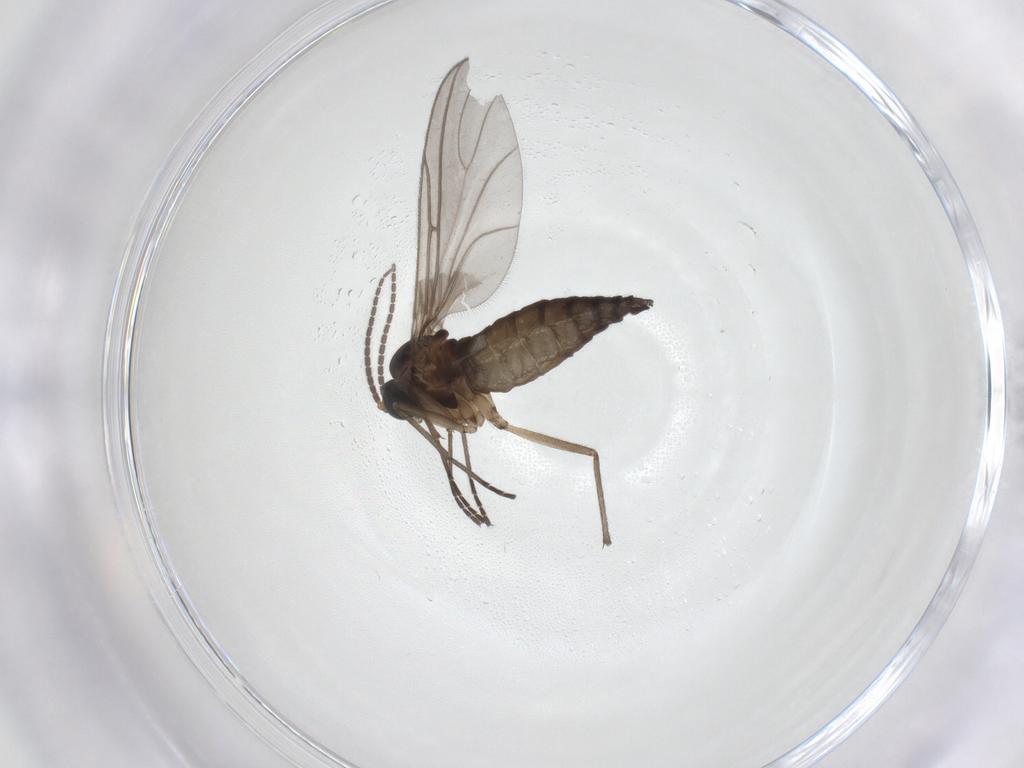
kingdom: Animalia
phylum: Arthropoda
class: Insecta
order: Diptera
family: Sciaridae
